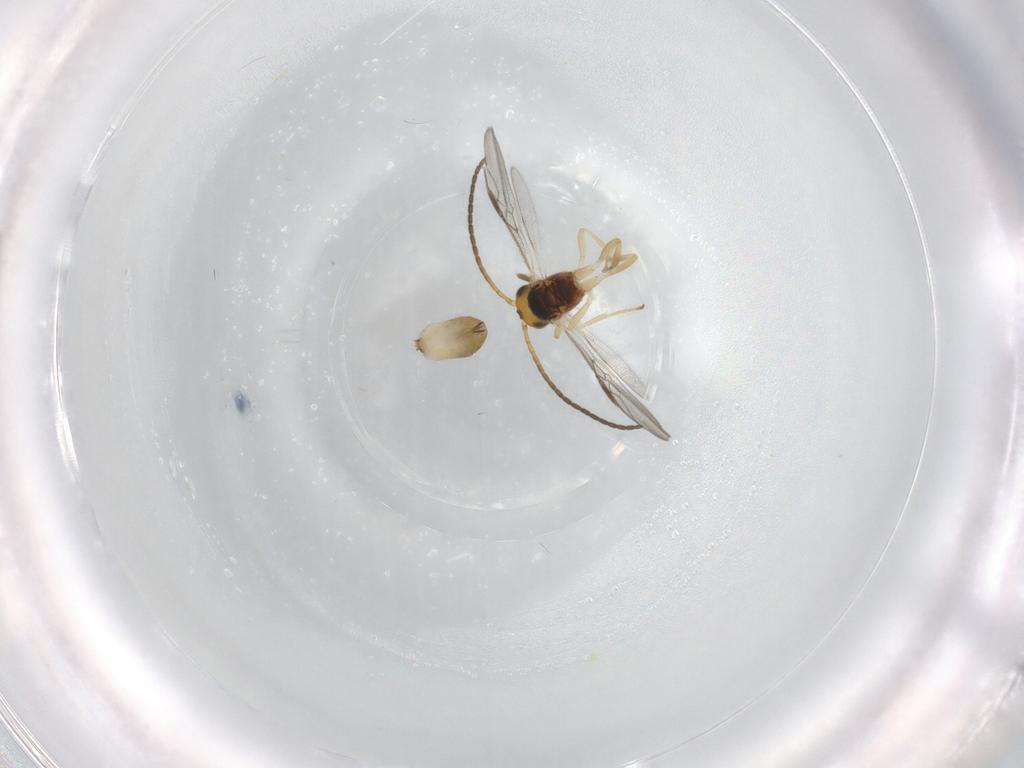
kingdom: Animalia
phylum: Arthropoda
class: Insecta
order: Hymenoptera
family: Braconidae
